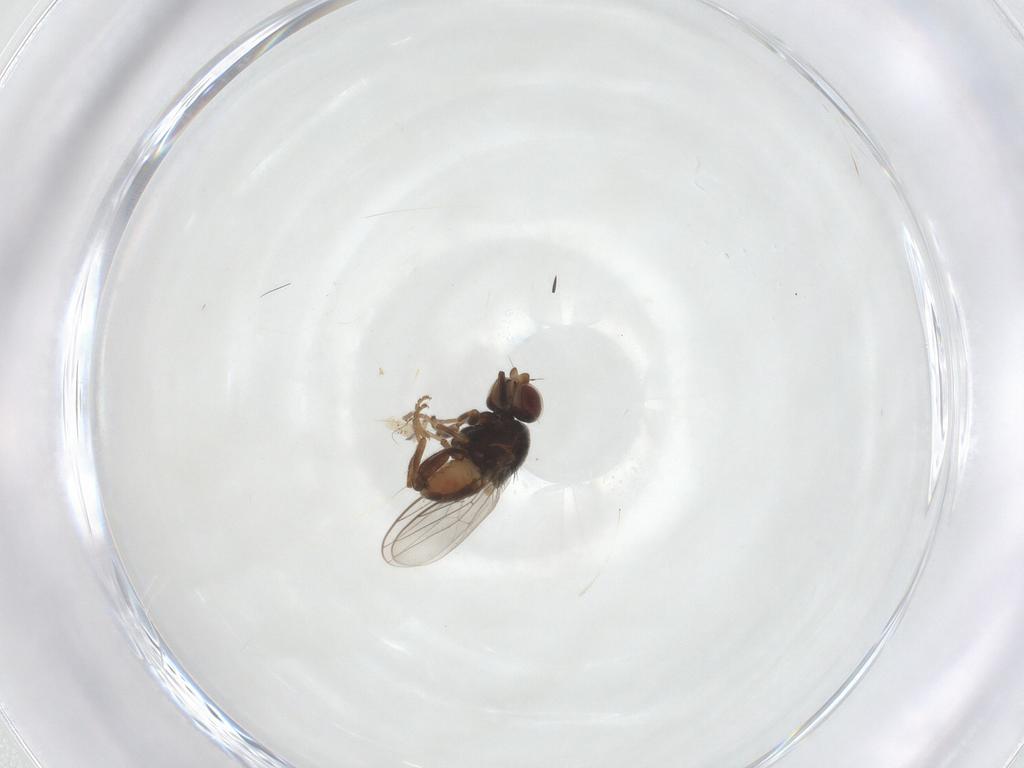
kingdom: Animalia
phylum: Arthropoda
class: Insecta
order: Diptera
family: Chloropidae
